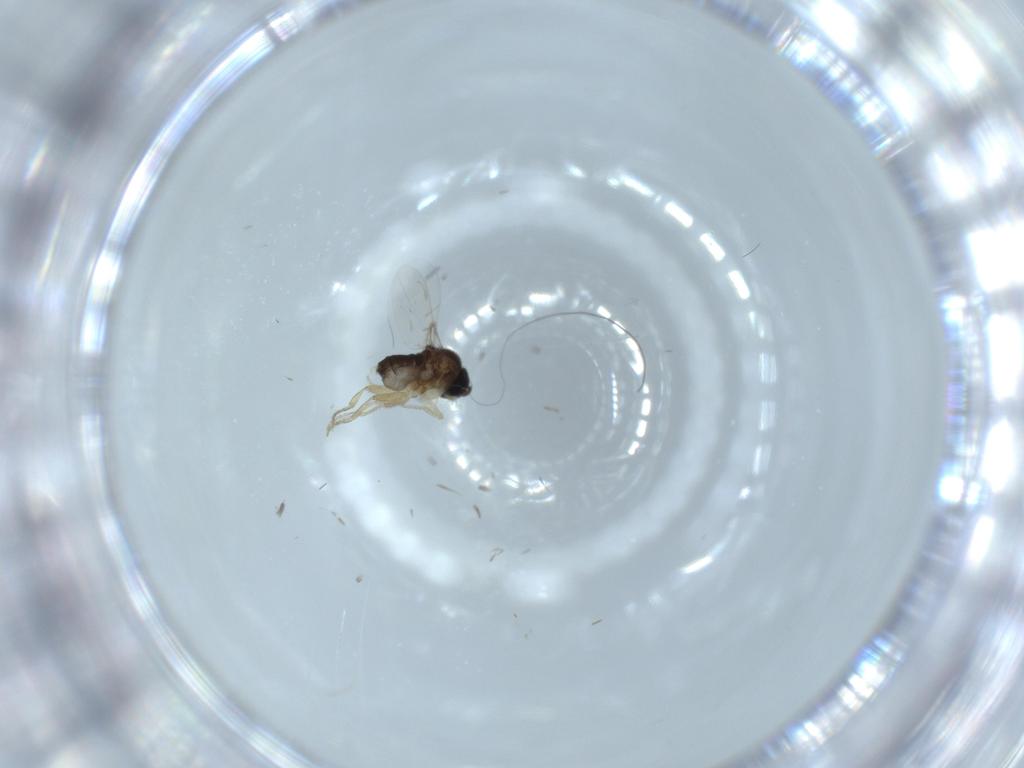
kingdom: Animalia
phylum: Arthropoda
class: Insecta
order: Diptera
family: Phoridae
